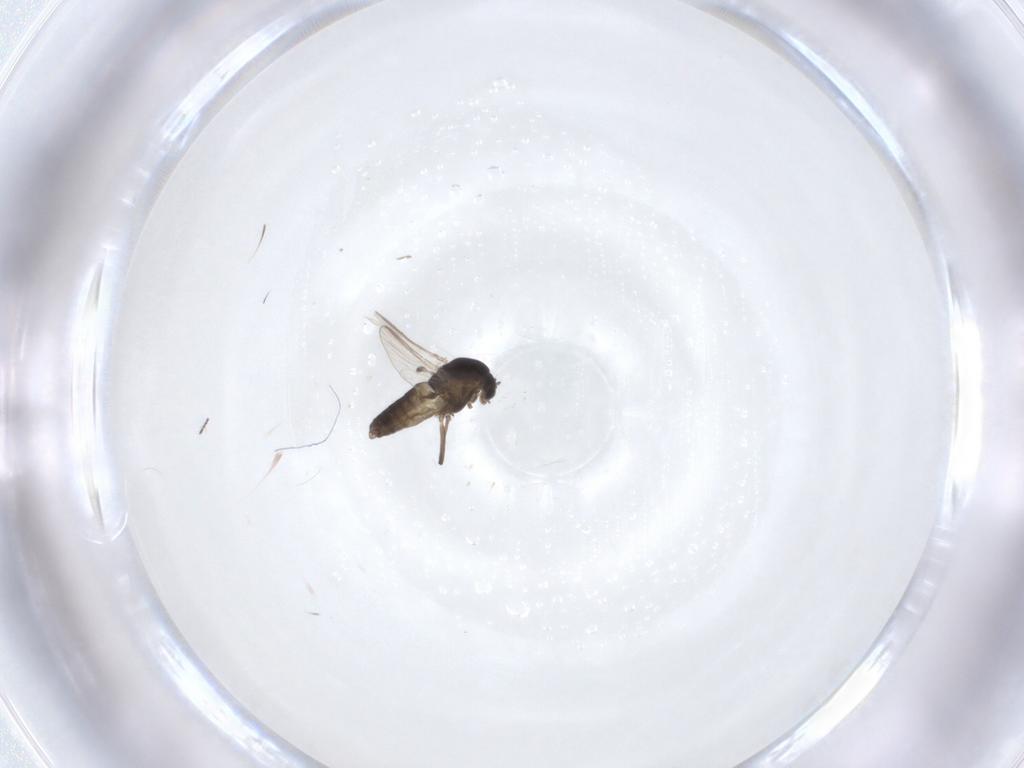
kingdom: Animalia
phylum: Arthropoda
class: Insecta
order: Diptera
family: Chironomidae
